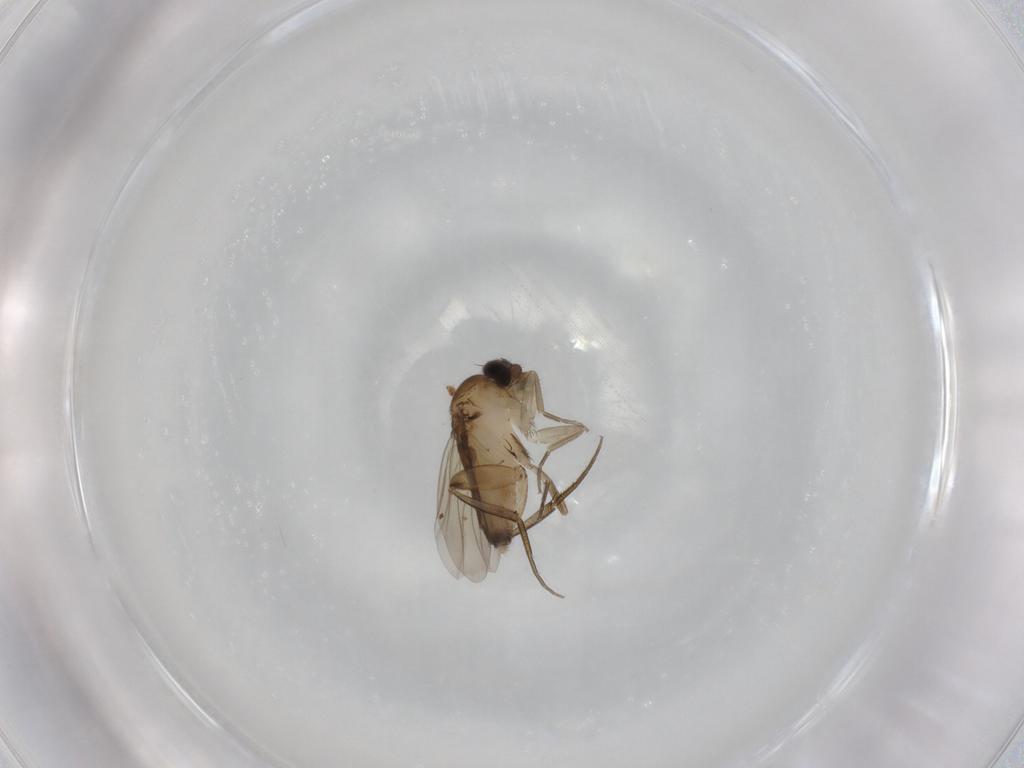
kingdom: Animalia
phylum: Arthropoda
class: Insecta
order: Diptera
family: Phoridae
